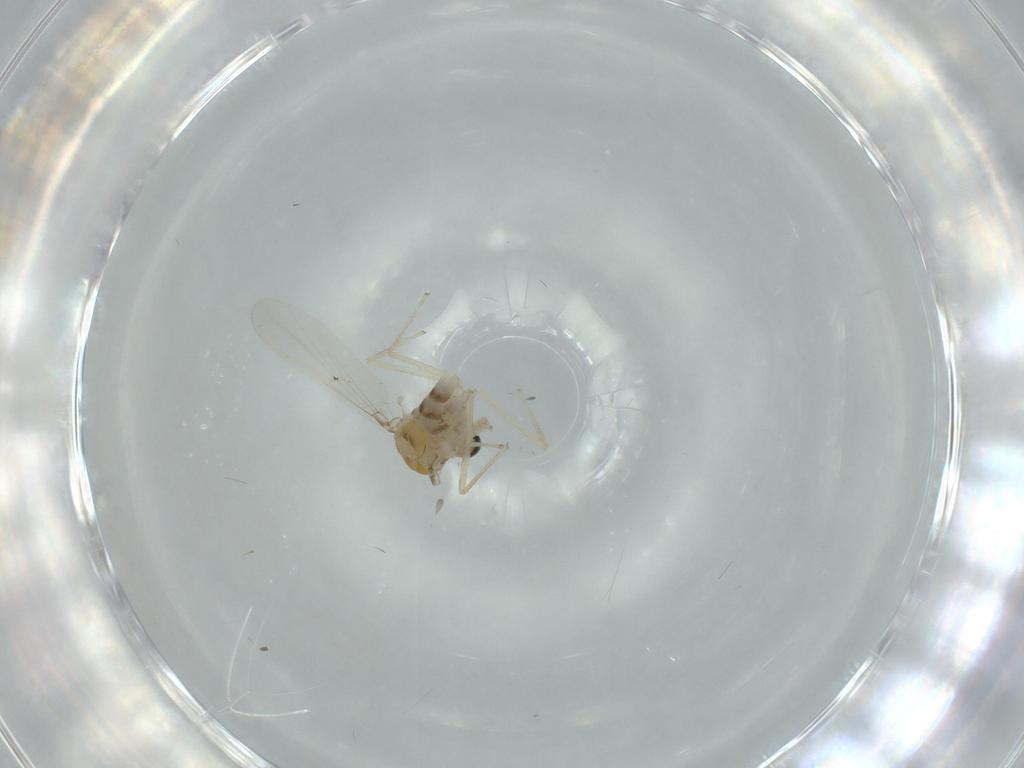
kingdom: Animalia
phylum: Arthropoda
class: Insecta
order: Diptera
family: Chironomidae
